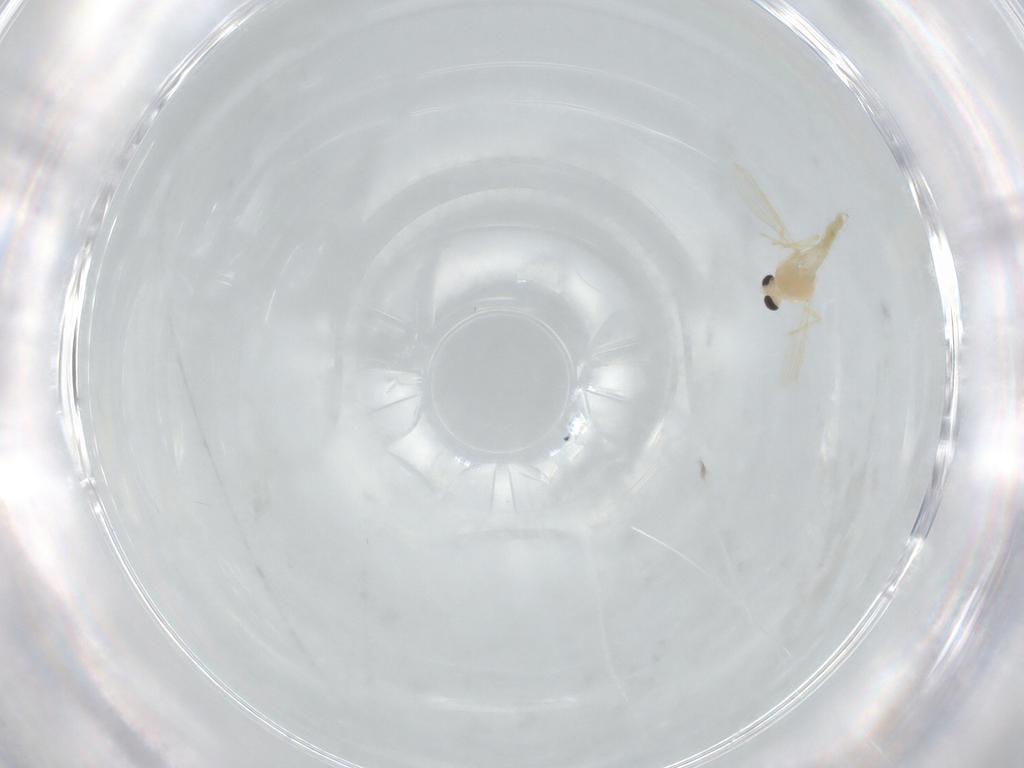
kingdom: Animalia
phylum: Arthropoda
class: Insecta
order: Diptera
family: Chironomidae
